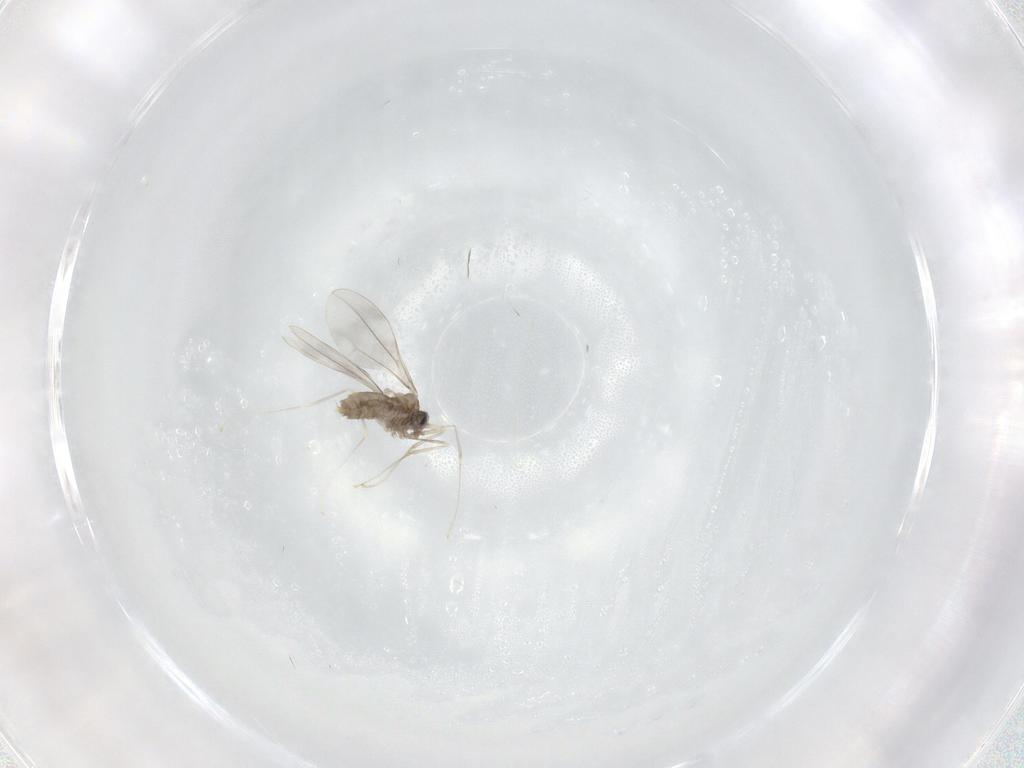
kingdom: Animalia
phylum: Arthropoda
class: Insecta
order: Diptera
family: Cecidomyiidae
